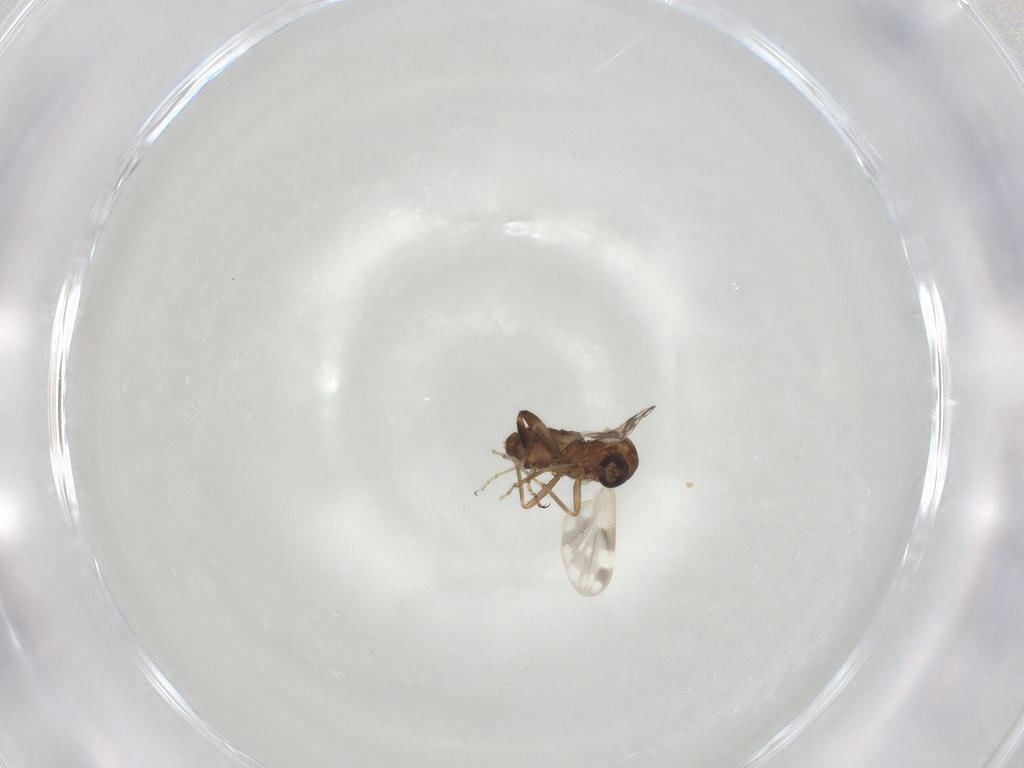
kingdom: Animalia
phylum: Arthropoda
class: Insecta
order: Diptera
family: Ceratopogonidae
